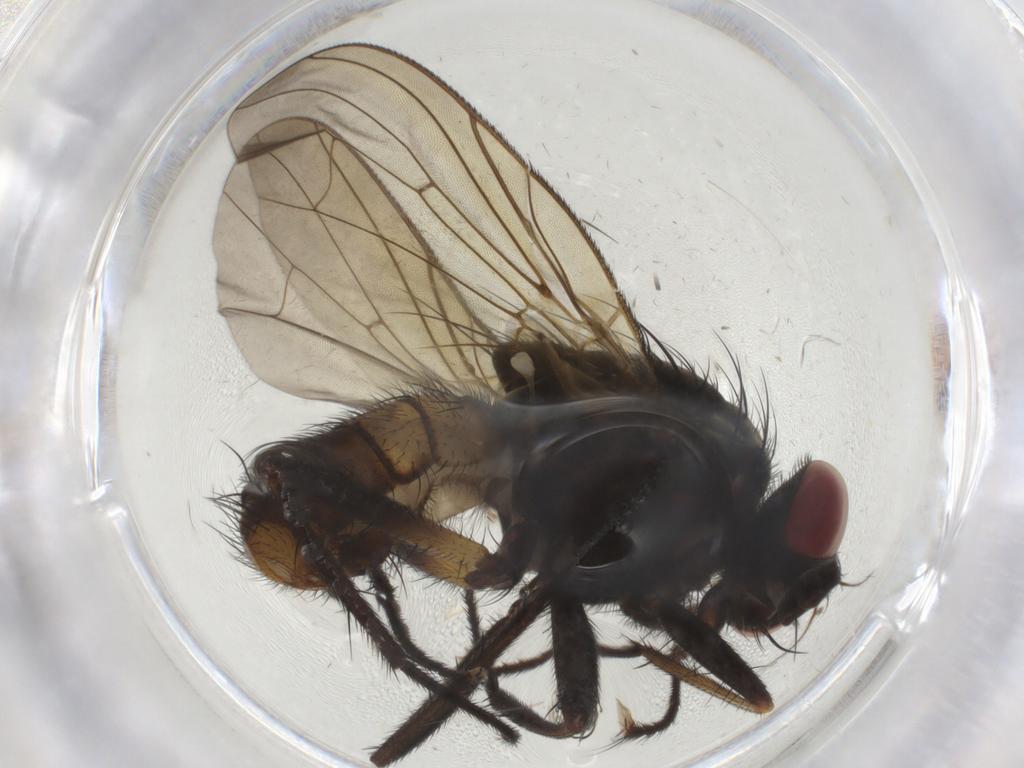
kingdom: Animalia
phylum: Arthropoda
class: Insecta
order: Diptera
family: Anthomyiidae
